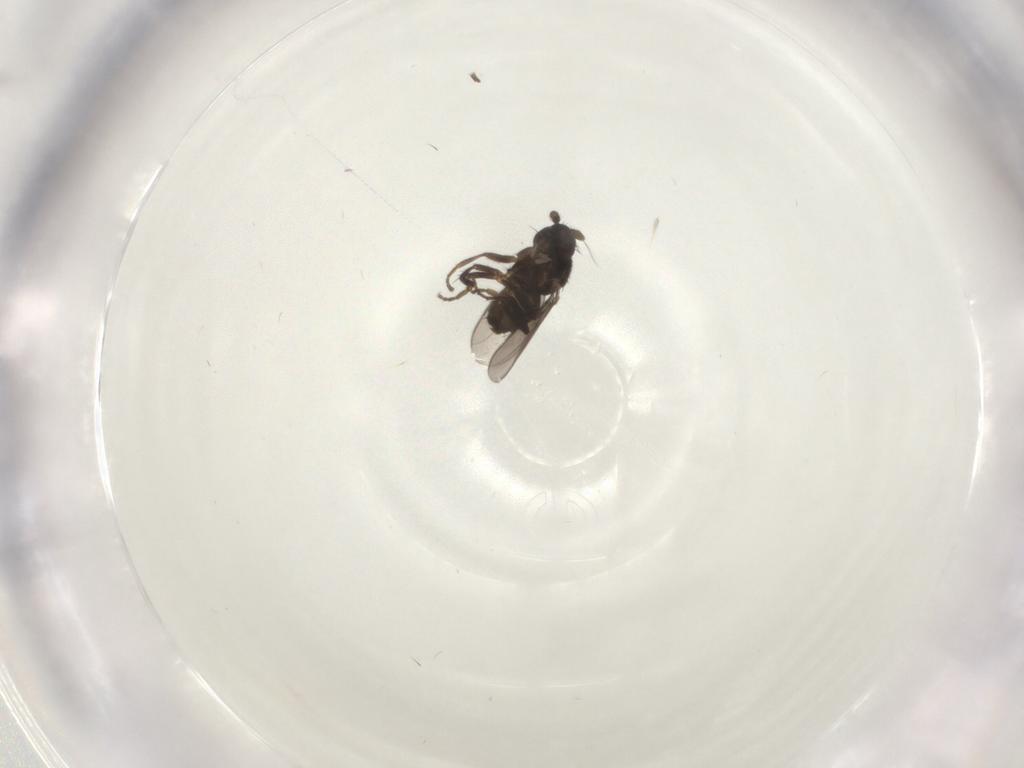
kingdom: Animalia
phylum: Arthropoda
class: Insecta
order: Diptera
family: Sphaeroceridae
